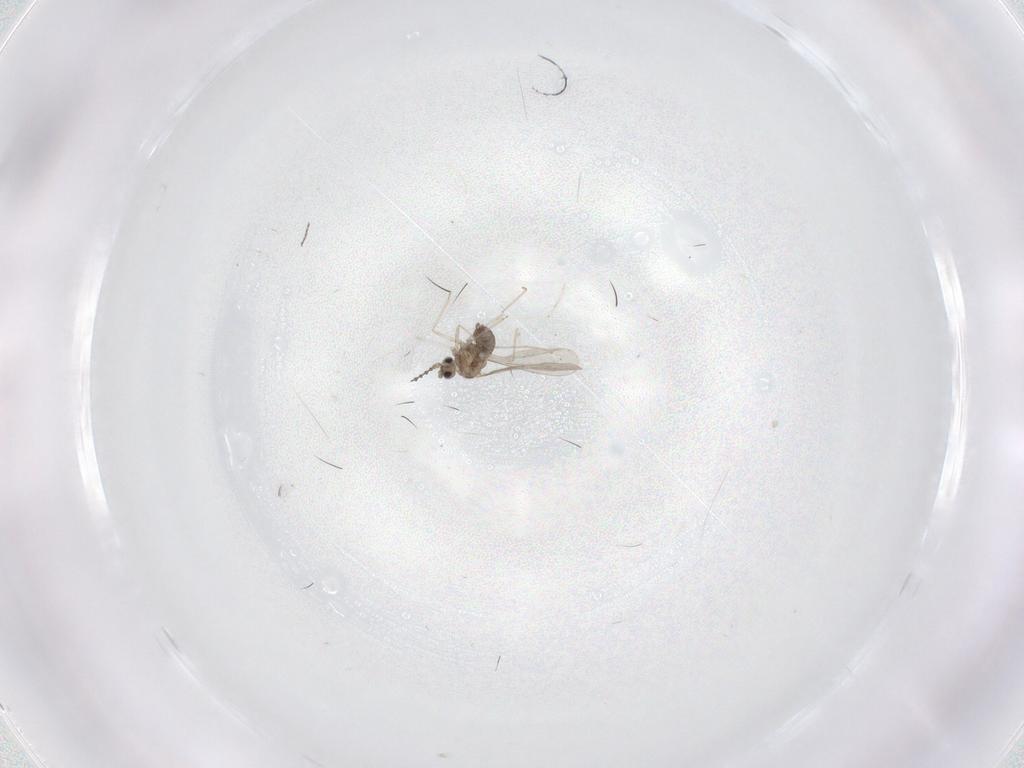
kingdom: Animalia
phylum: Arthropoda
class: Insecta
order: Diptera
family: Cecidomyiidae
